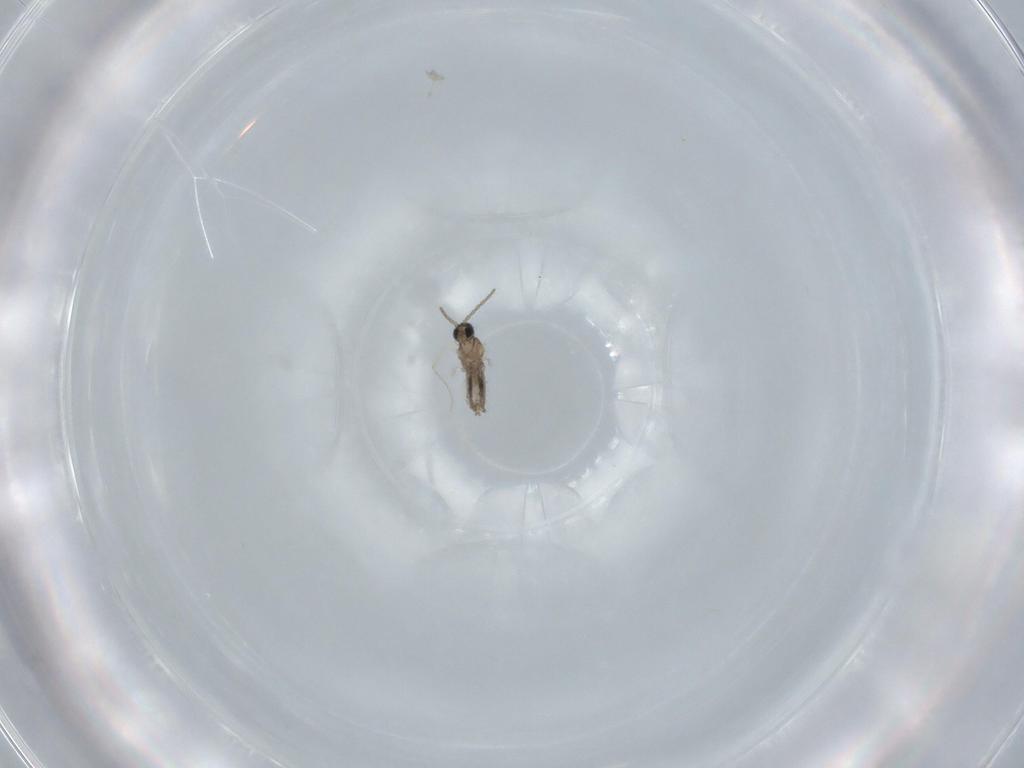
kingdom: Animalia
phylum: Arthropoda
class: Insecta
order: Diptera
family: Cecidomyiidae
